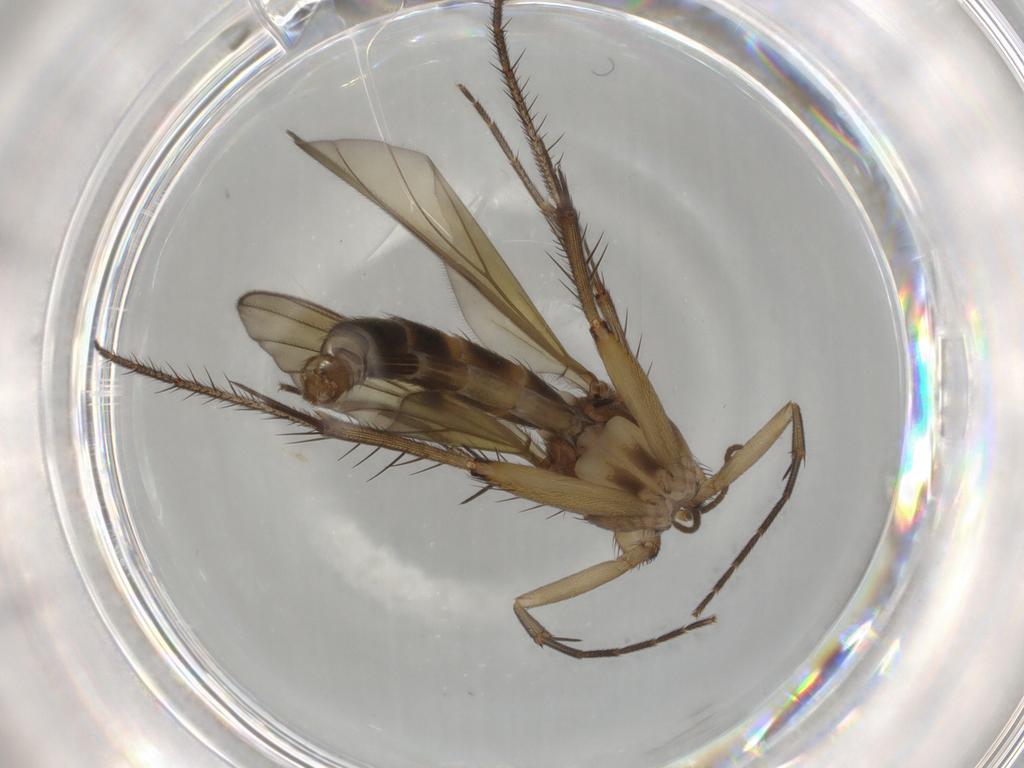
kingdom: Animalia
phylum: Arthropoda
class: Insecta
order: Diptera
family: Mycetophilidae
